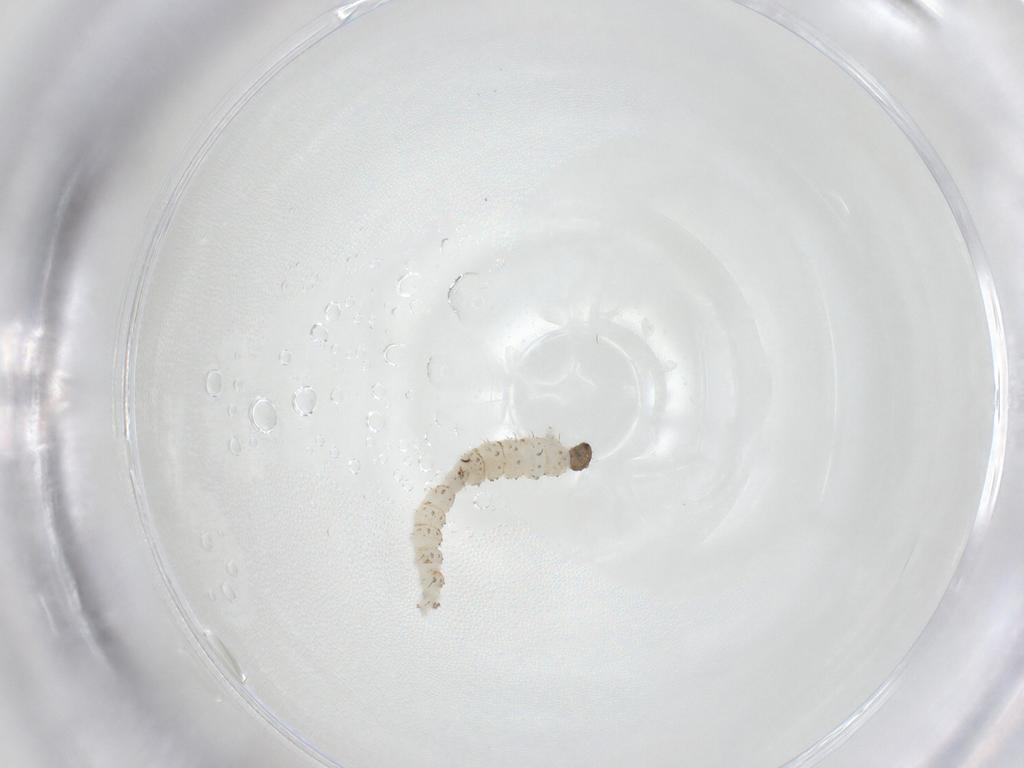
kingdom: Animalia
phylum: Arthropoda
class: Insecta
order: Diptera
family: Ceratopogonidae
